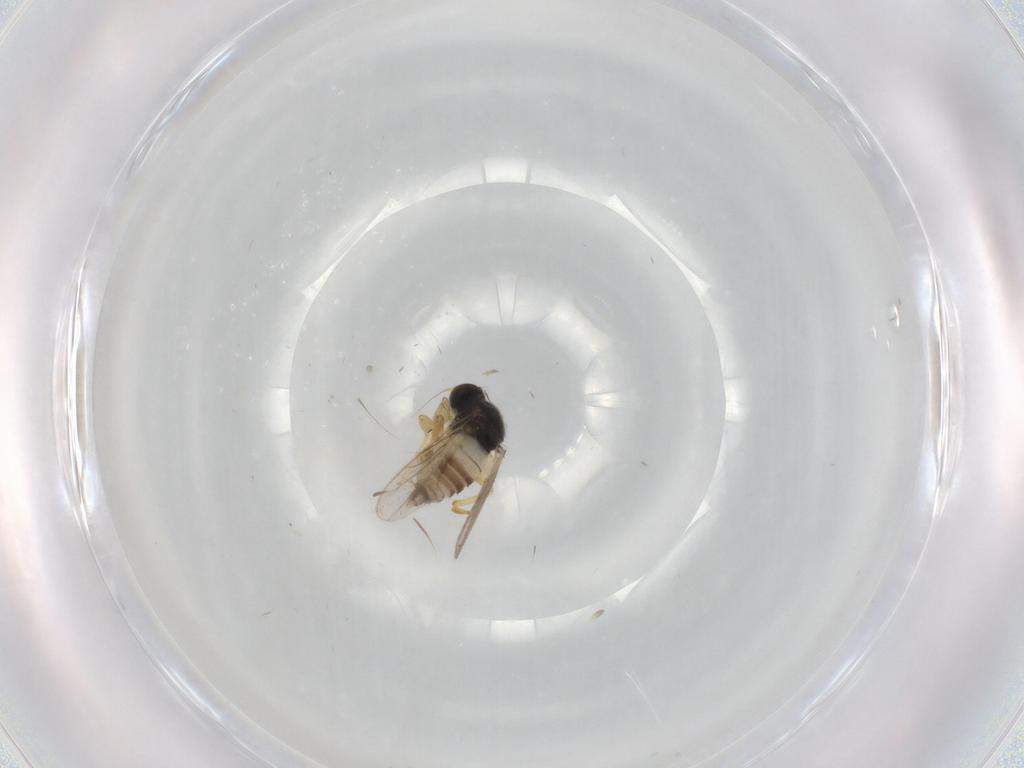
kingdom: Animalia
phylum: Arthropoda
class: Insecta
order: Diptera
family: Hybotidae
